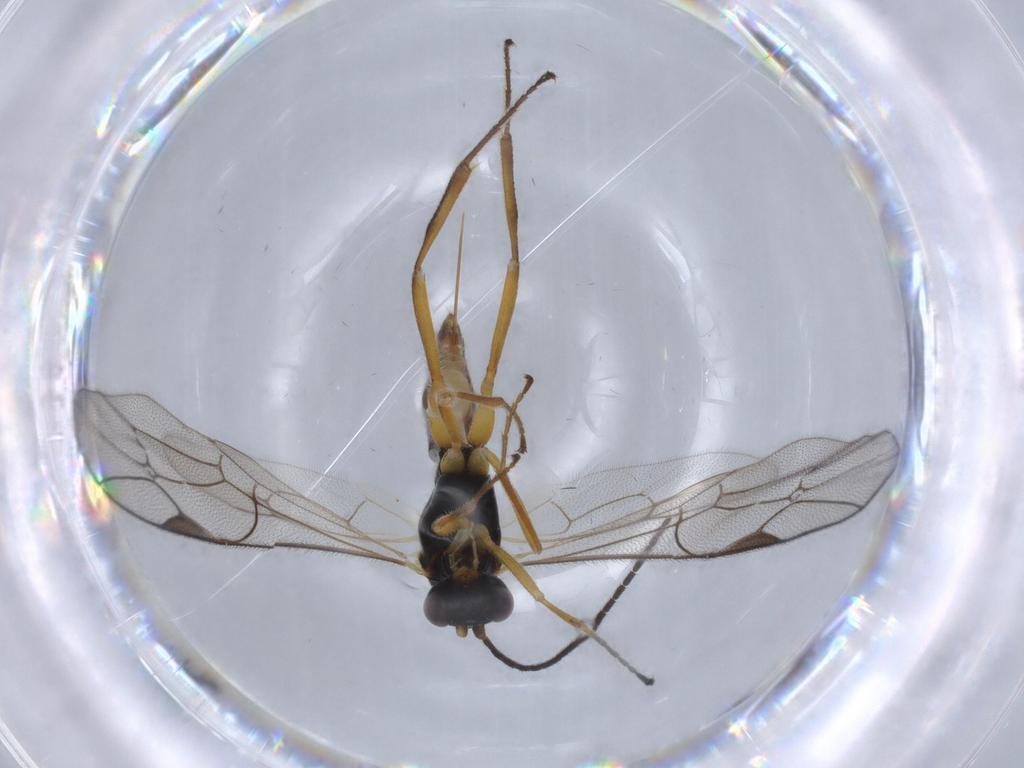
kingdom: Animalia
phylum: Arthropoda
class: Insecta
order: Hymenoptera
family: Ichneumonidae
